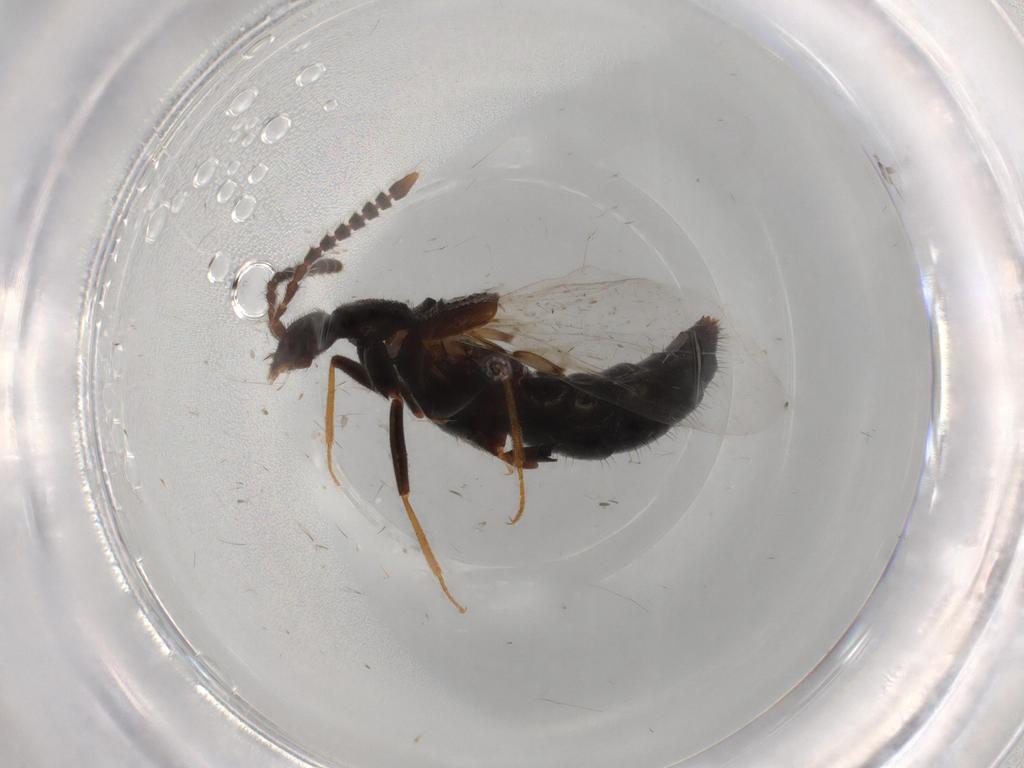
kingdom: Animalia
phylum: Arthropoda
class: Insecta
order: Coleoptera
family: Staphylinidae
